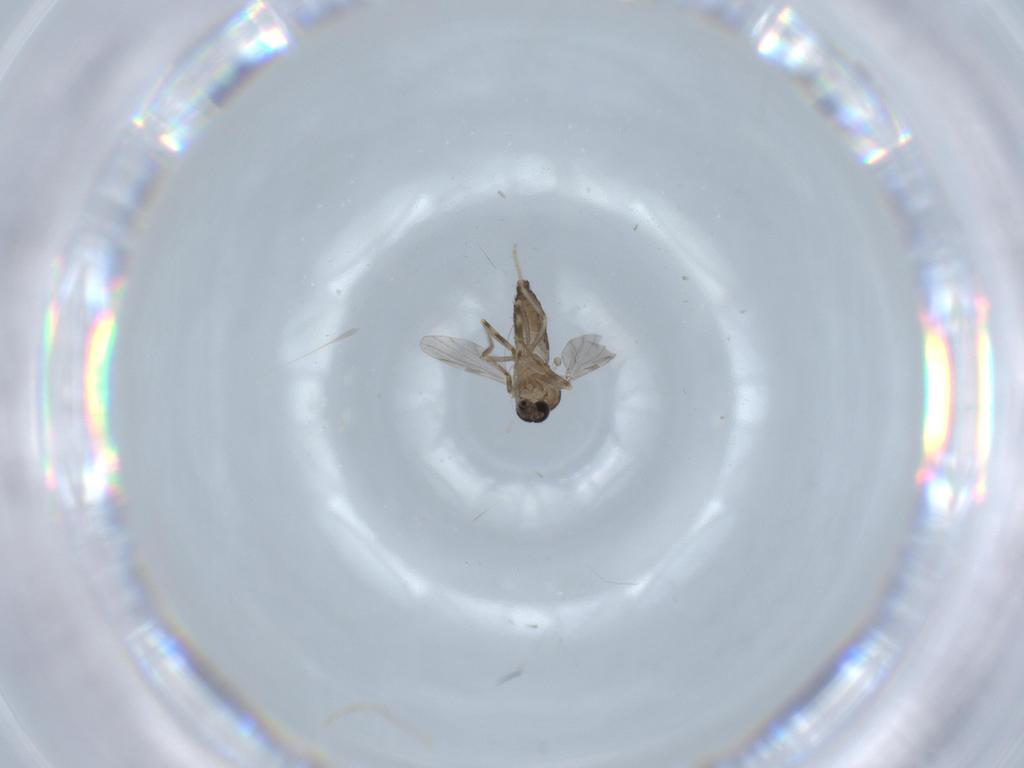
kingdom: Animalia
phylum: Arthropoda
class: Insecta
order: Diptera
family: Ceratopogonidae
